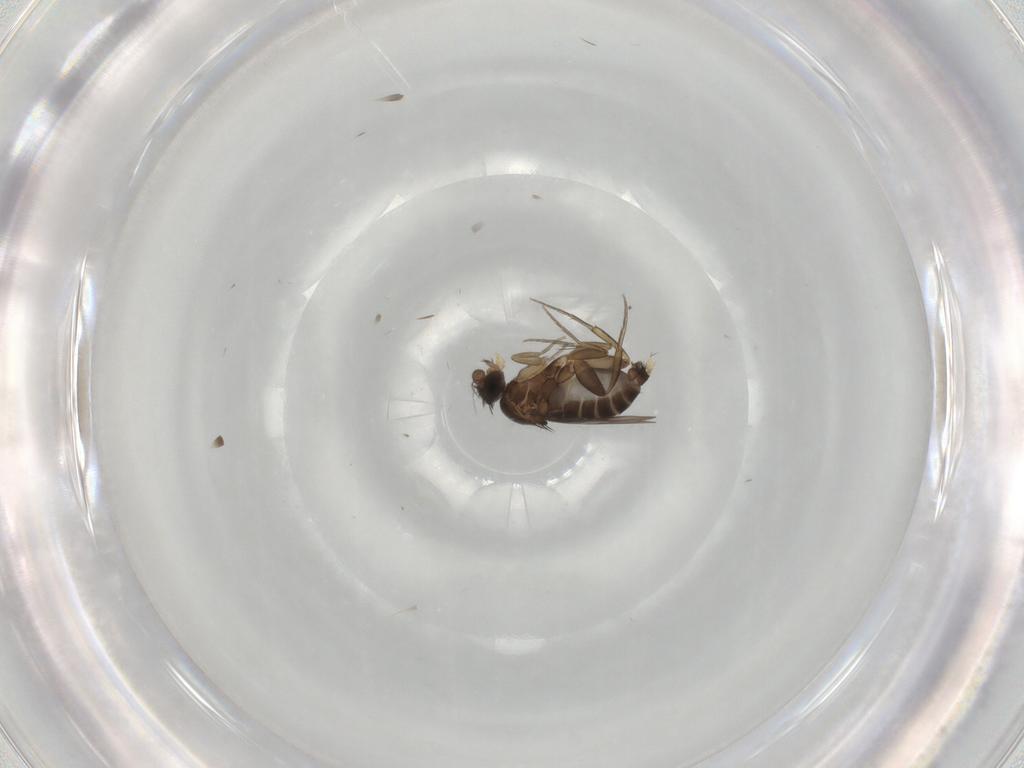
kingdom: Animalia
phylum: Arthropoda
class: Insecta
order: Diptera
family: Phoridae
